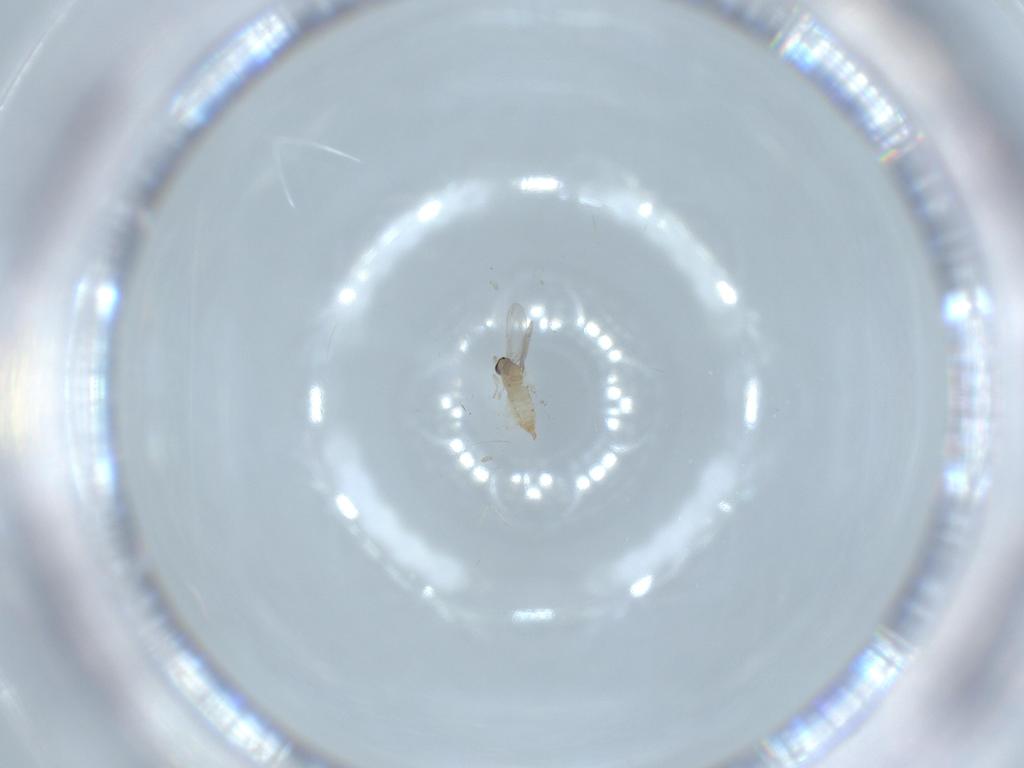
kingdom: Animalia
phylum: Arthropoda
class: Insecta
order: Diptera
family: Cecidomyiidae
